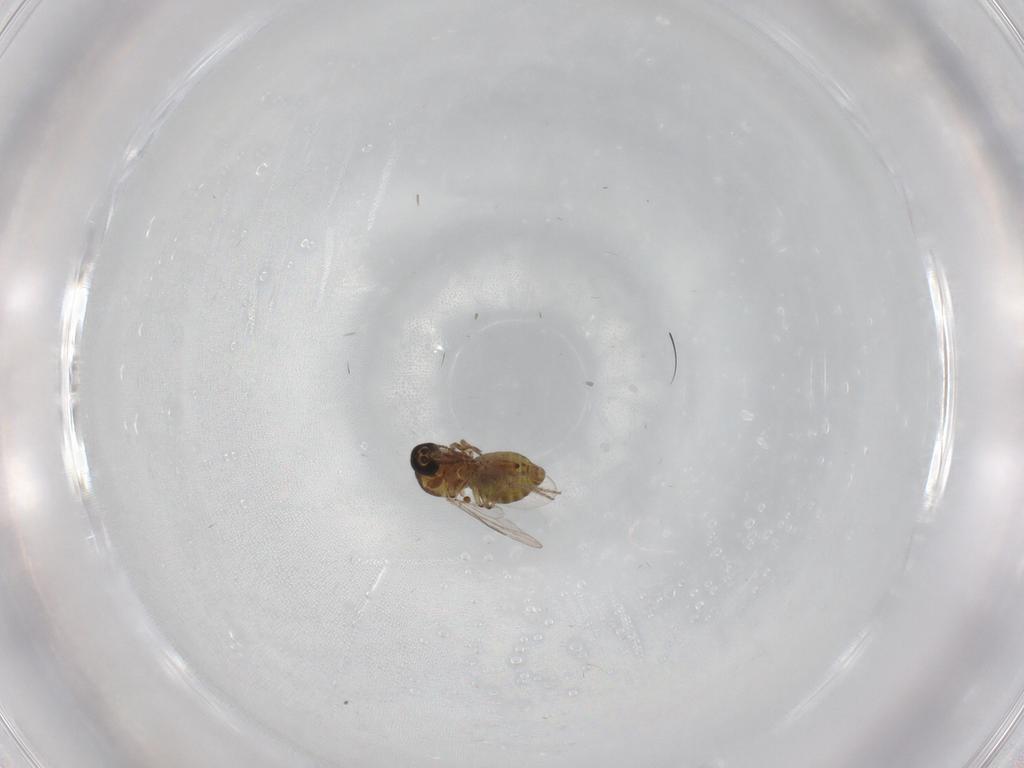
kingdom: Animalia
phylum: Arthropoda
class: Insecta
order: Diptera
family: Ceratopogonidae
